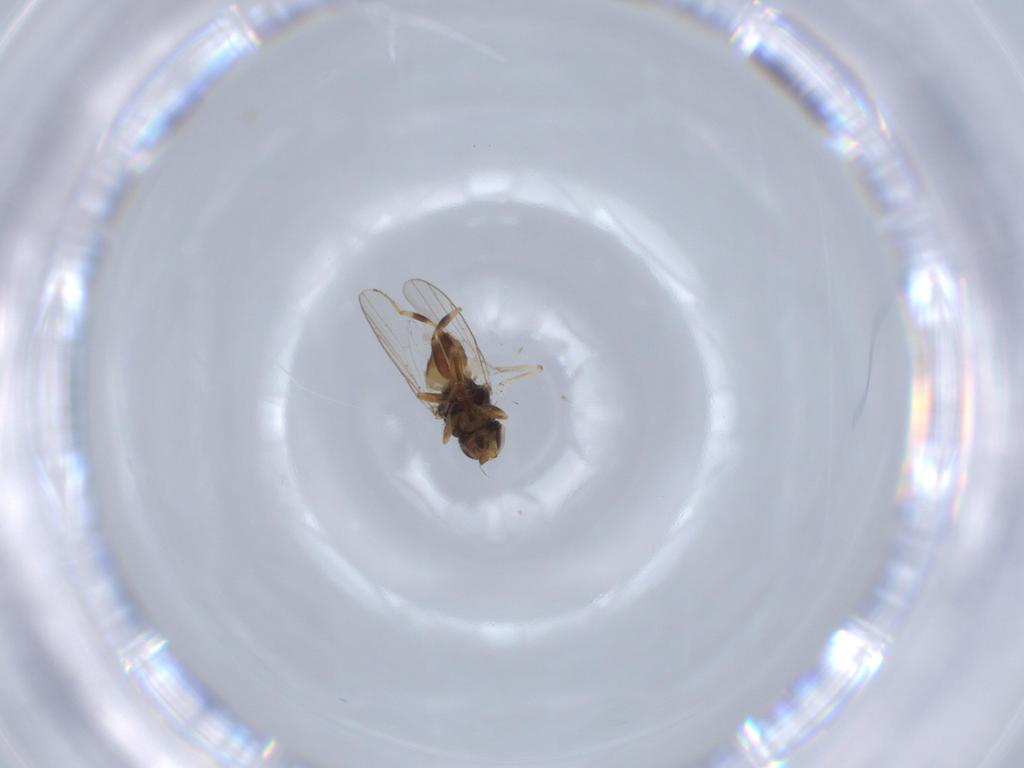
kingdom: Animalia
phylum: Arthropoda
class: Insecta
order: Diptera
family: Chloropidae
